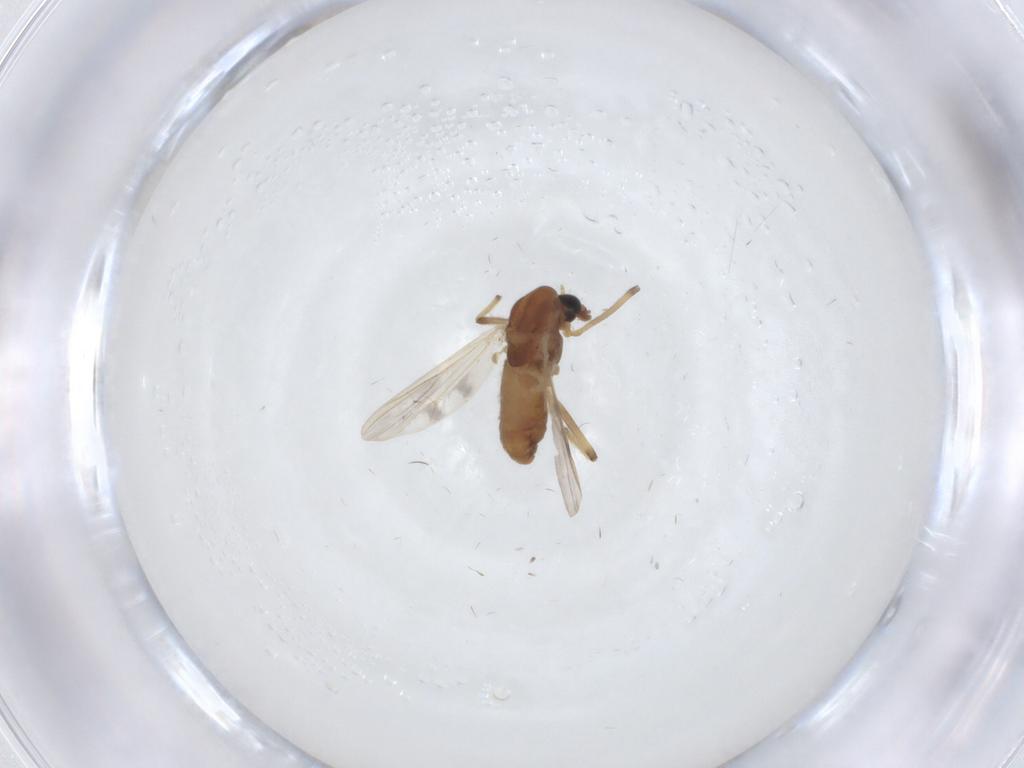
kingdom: Animalia
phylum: Arthropoda
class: Insecta
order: Diptera
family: Chironomidae
